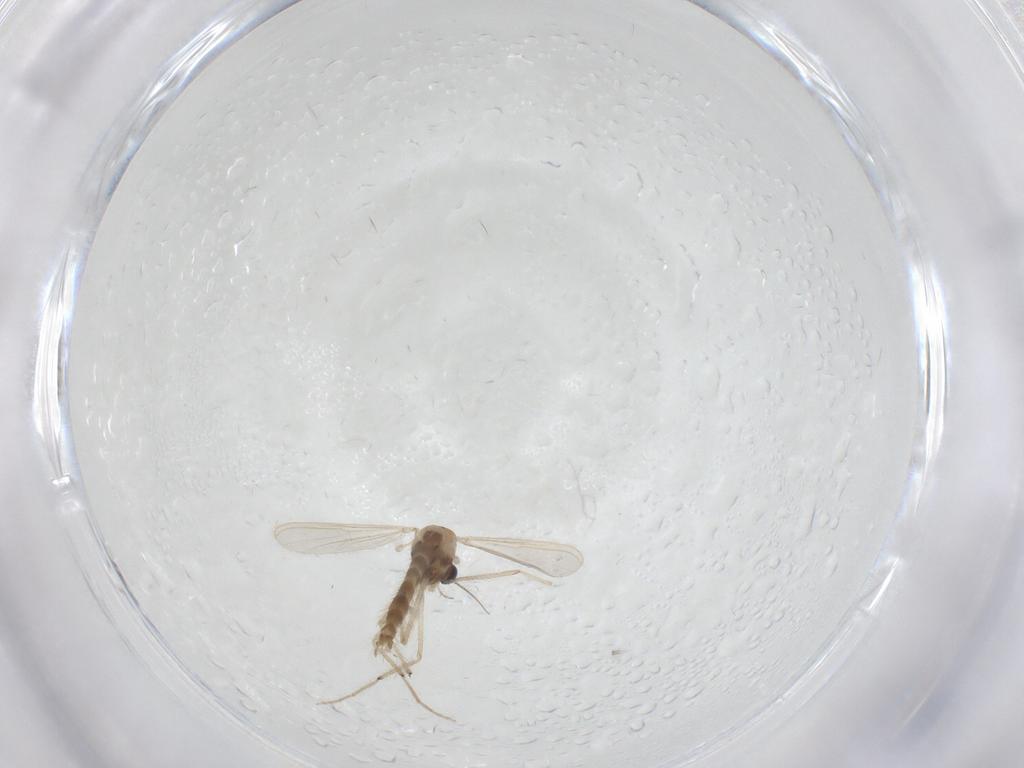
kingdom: Animalia
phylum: Arthropoda
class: Insecta
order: Diptera
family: Chironomidae
